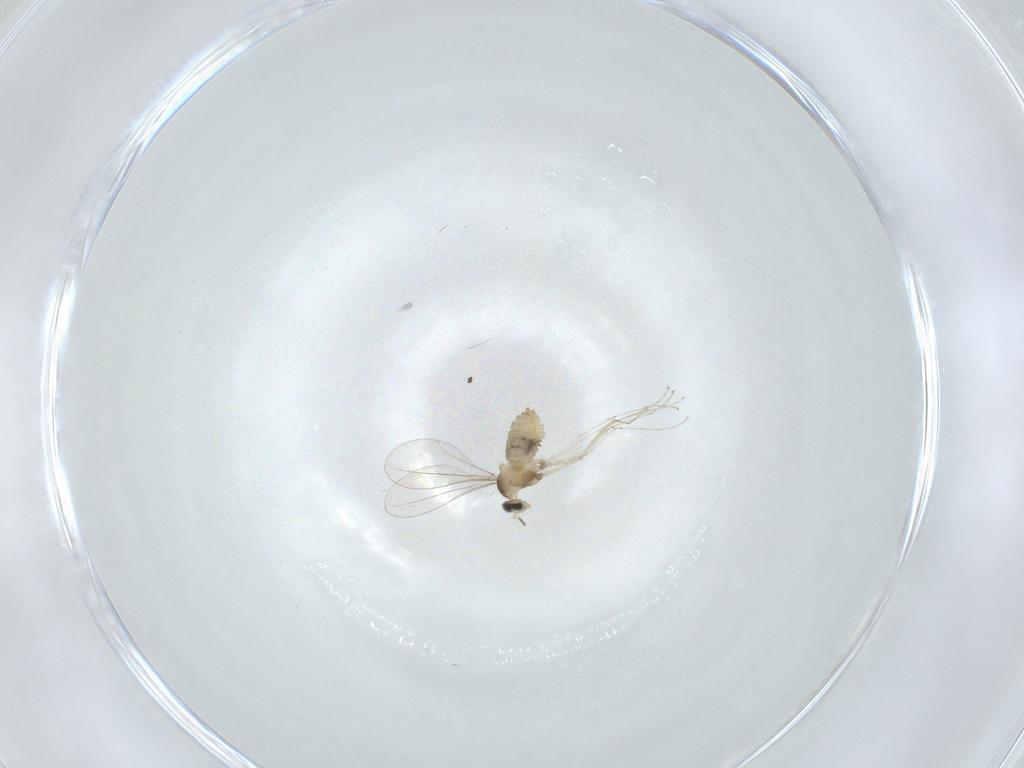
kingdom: Animalia
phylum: Arthropoda
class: Insecta
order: Diptera
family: Cecidomyiidae
